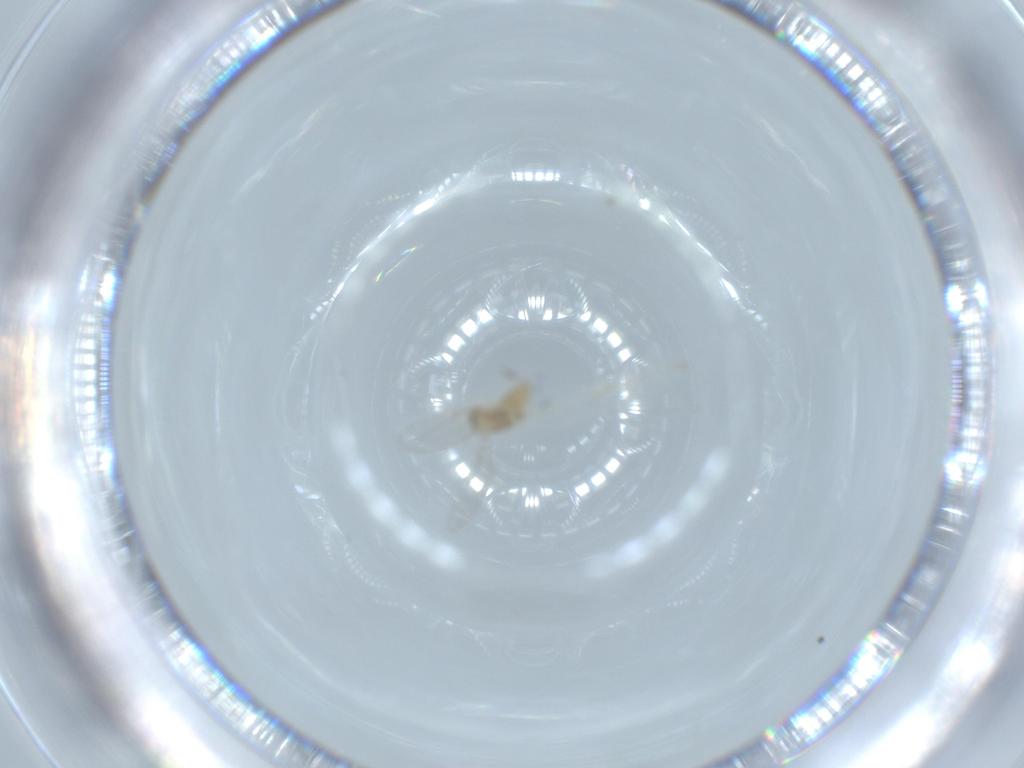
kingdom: Animalia
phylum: Arthropoda
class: Insecta
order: Diptera
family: Cecidomyiidae
